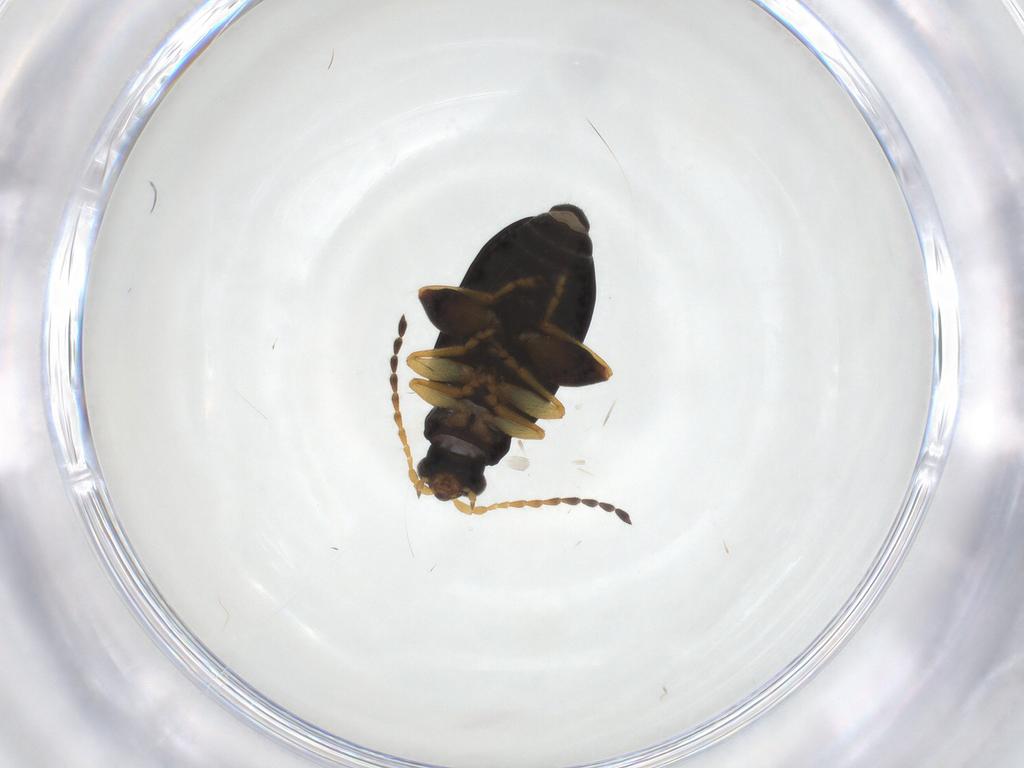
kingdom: Animalia
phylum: Arthropoda
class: Insecta
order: Coleoptera
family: Chrysomelidae
